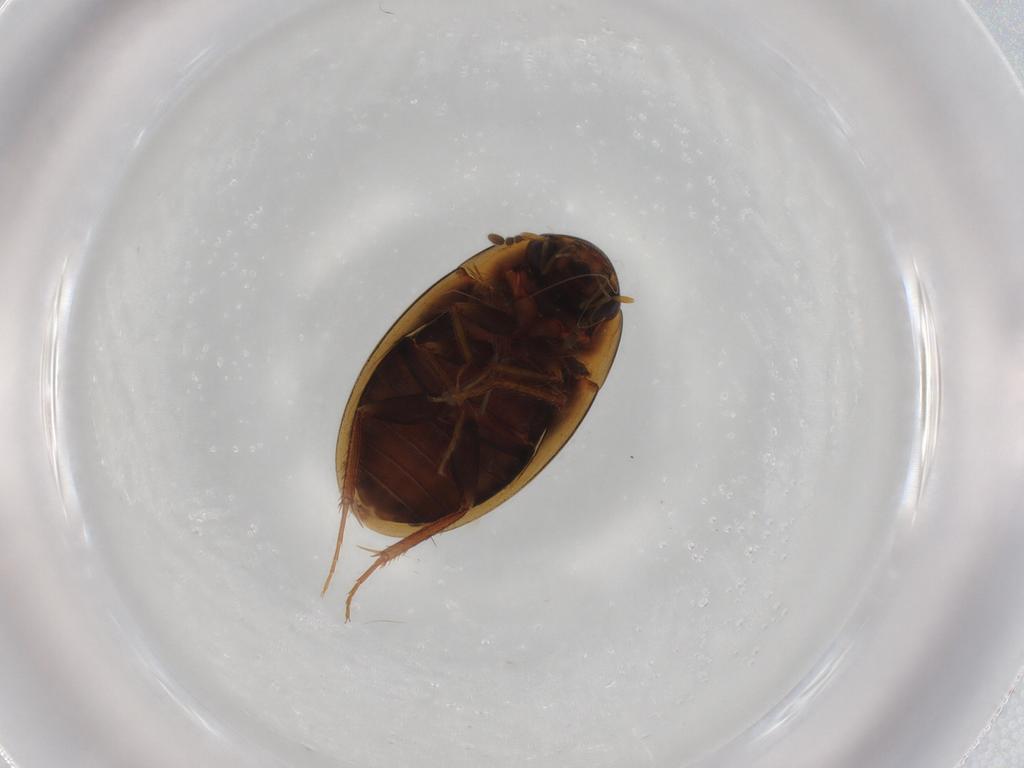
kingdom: Animalia
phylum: Arthropoda
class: Insecta
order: Coleoptera
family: Hydrophilidae
